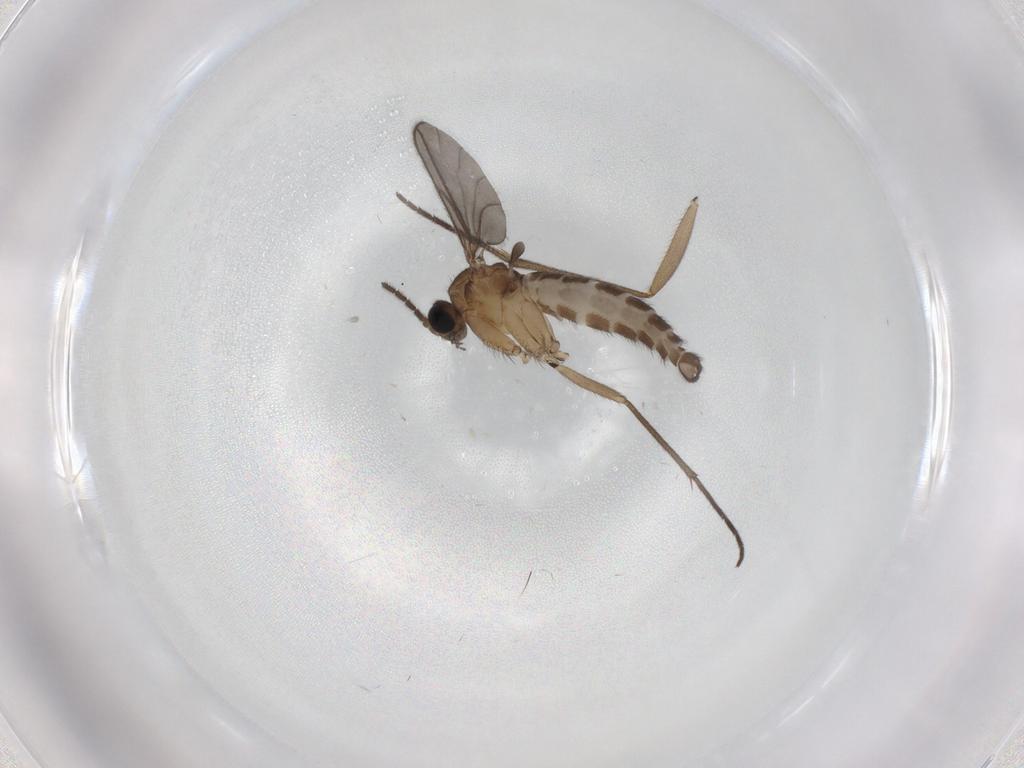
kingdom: Animalia
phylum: Arthropoda
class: Insecta
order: Diptera
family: Sciaridae
